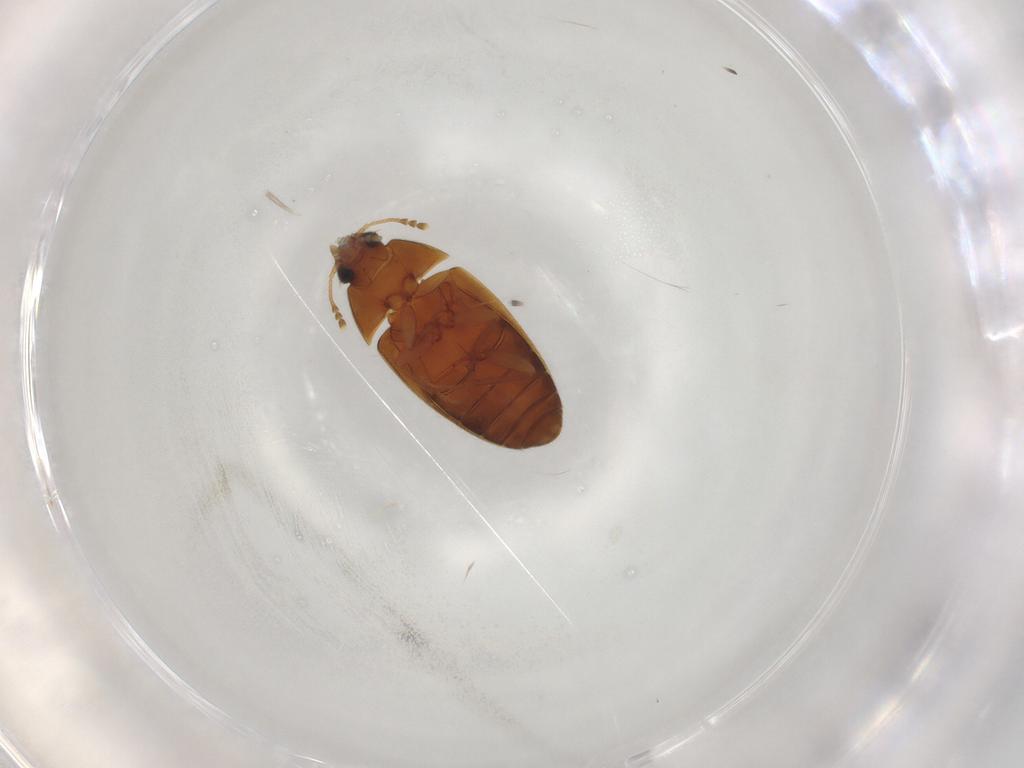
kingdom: Animalia
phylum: Arthropoda
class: Insecta
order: Coleoptera
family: Mycetophagidae
